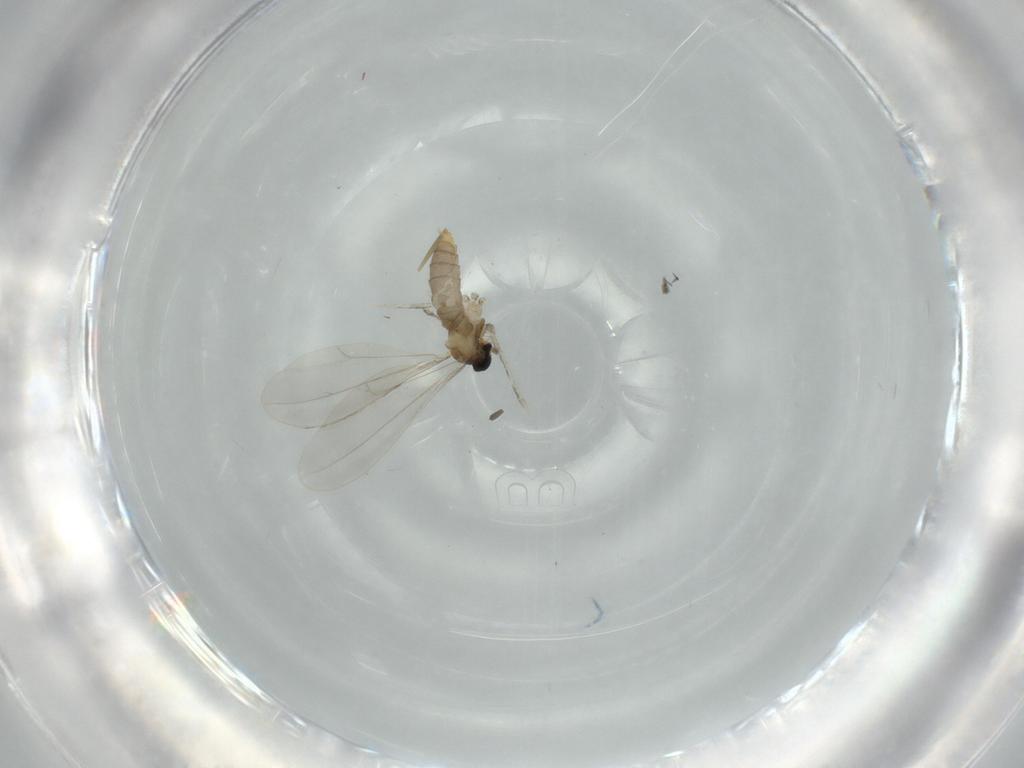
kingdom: Animalia
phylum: Arthropoda
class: Insecta
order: Diptera
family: Cecidomyiidae
